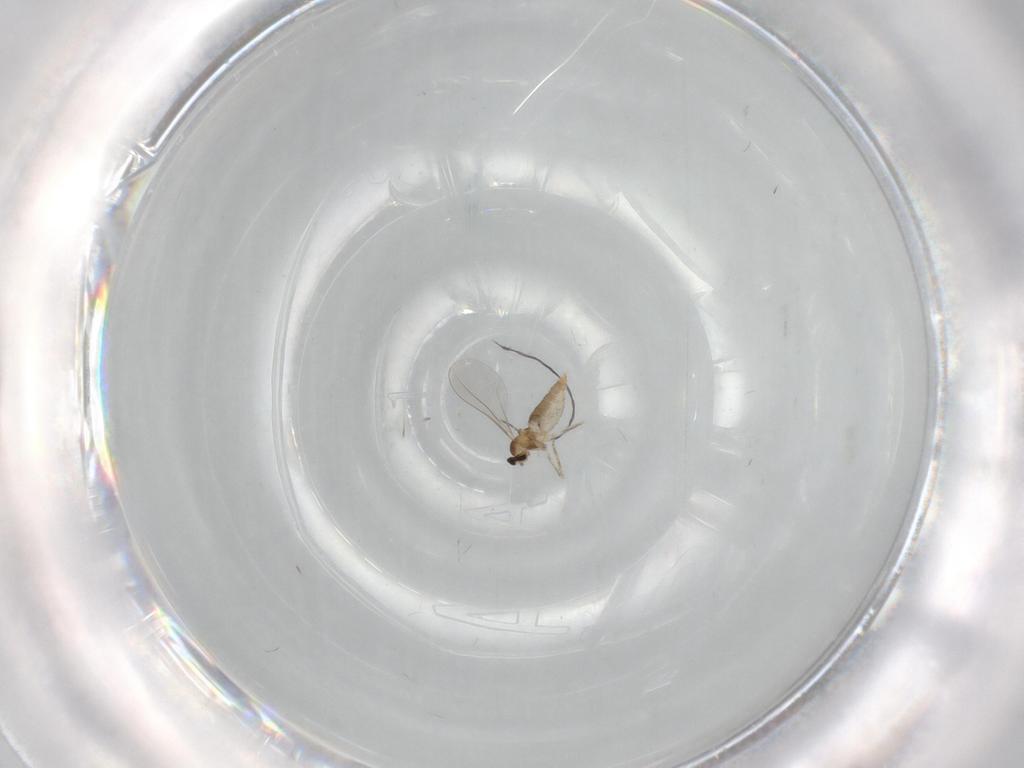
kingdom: Animalia
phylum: Arthropoda
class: Insecta
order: Diptera
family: Cecidomyiidae
